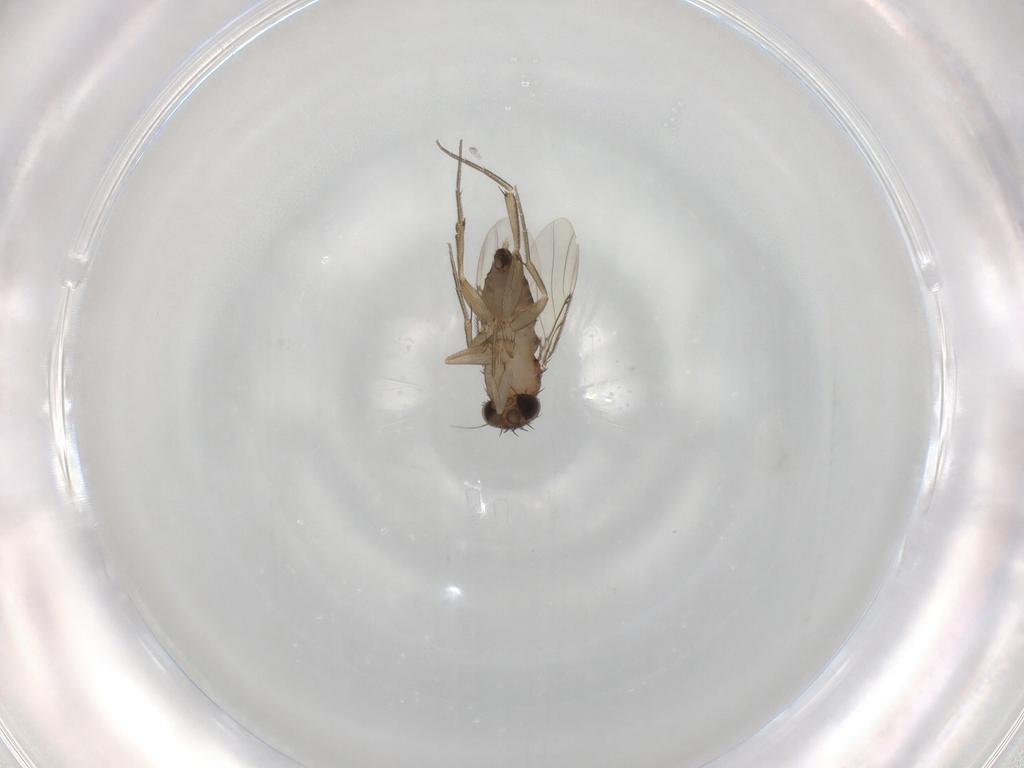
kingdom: Animalia
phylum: Arthropoda
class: Insecta
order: Diptera
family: Phoridae
